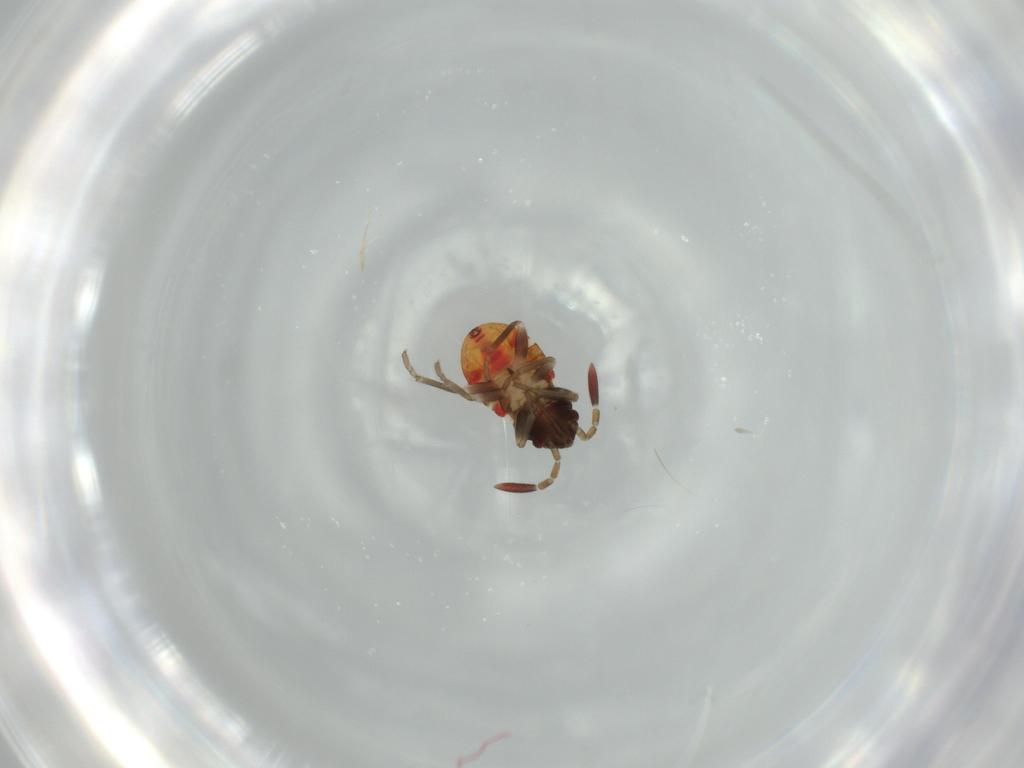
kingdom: Animalia
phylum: Arthropoda
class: Insecta
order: Hemiptera
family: Rhyparochromidae
